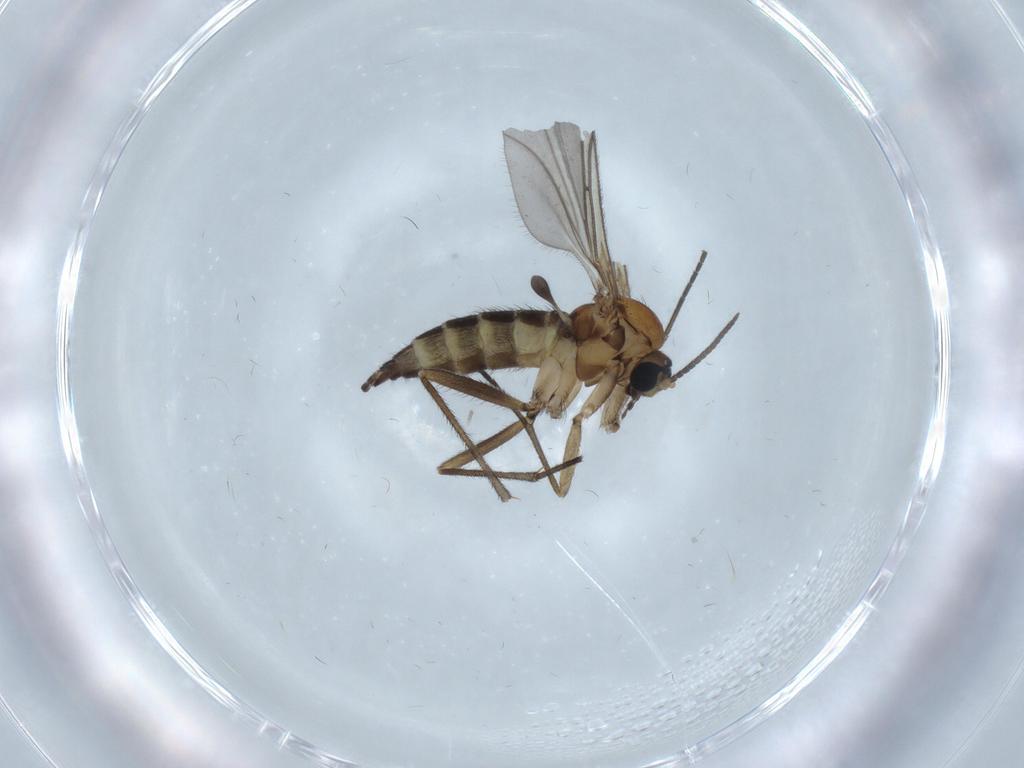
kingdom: Animalia
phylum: Arthropoda
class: Insecta
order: Diptera
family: Sciaridae
